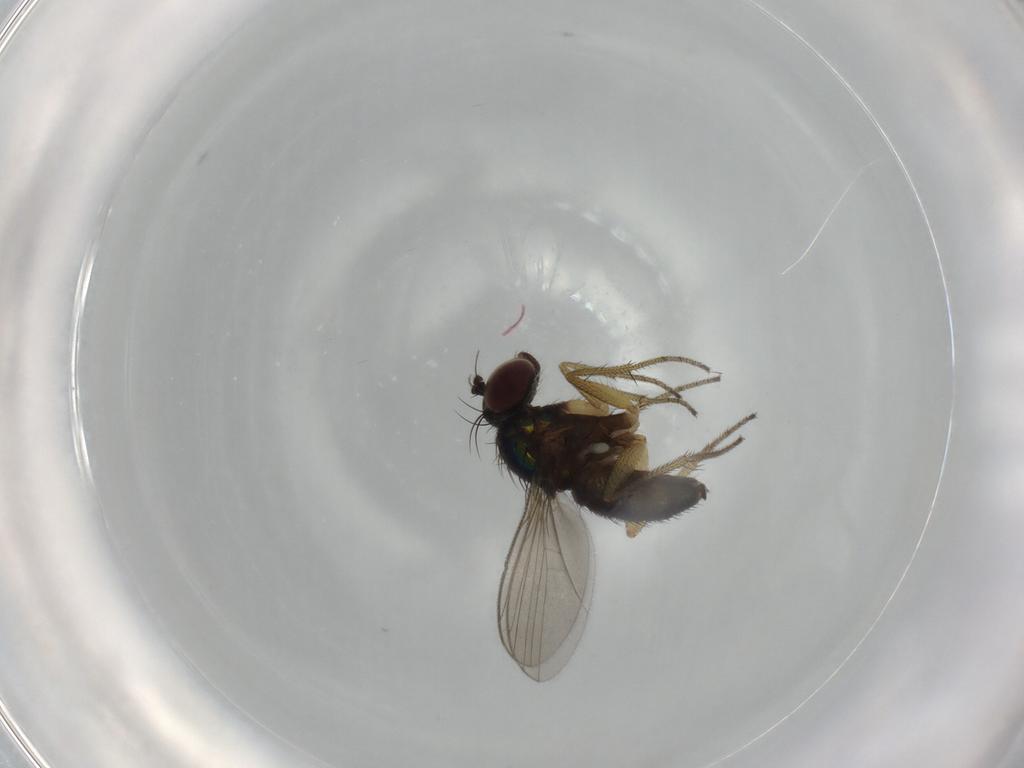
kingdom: Animalia
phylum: Arthropoda
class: Insecta
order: Diptera
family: Dolichopodidae
